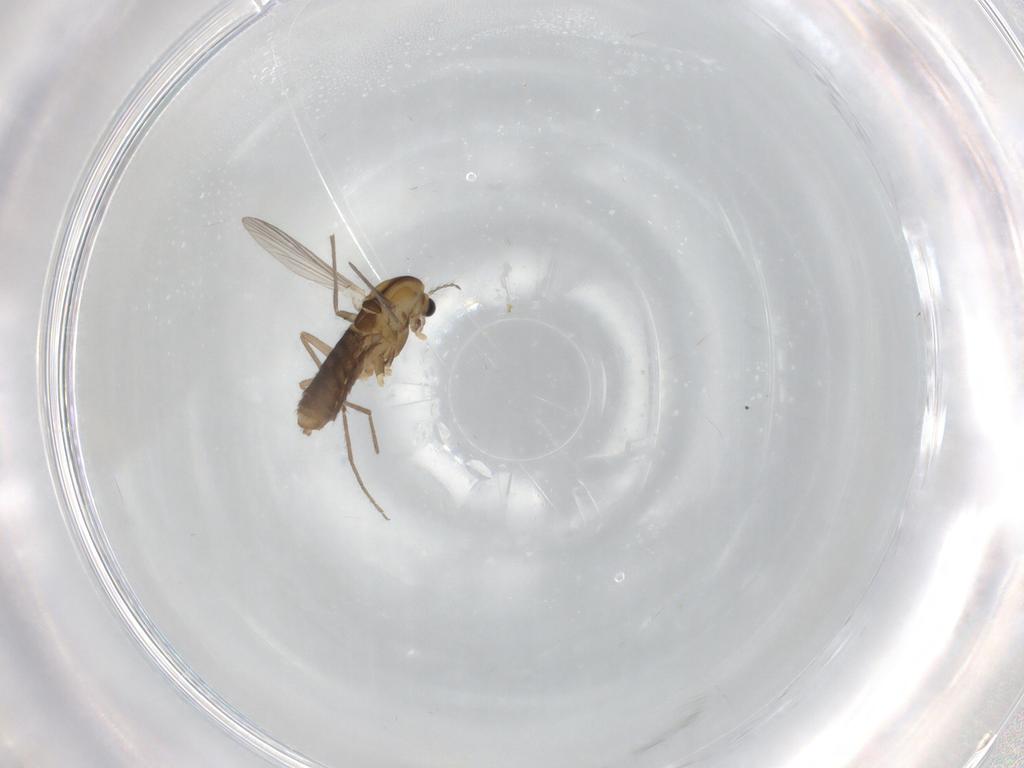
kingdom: Animalia
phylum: Arthropoda
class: Insecta
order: Diptera
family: Chironomidae
